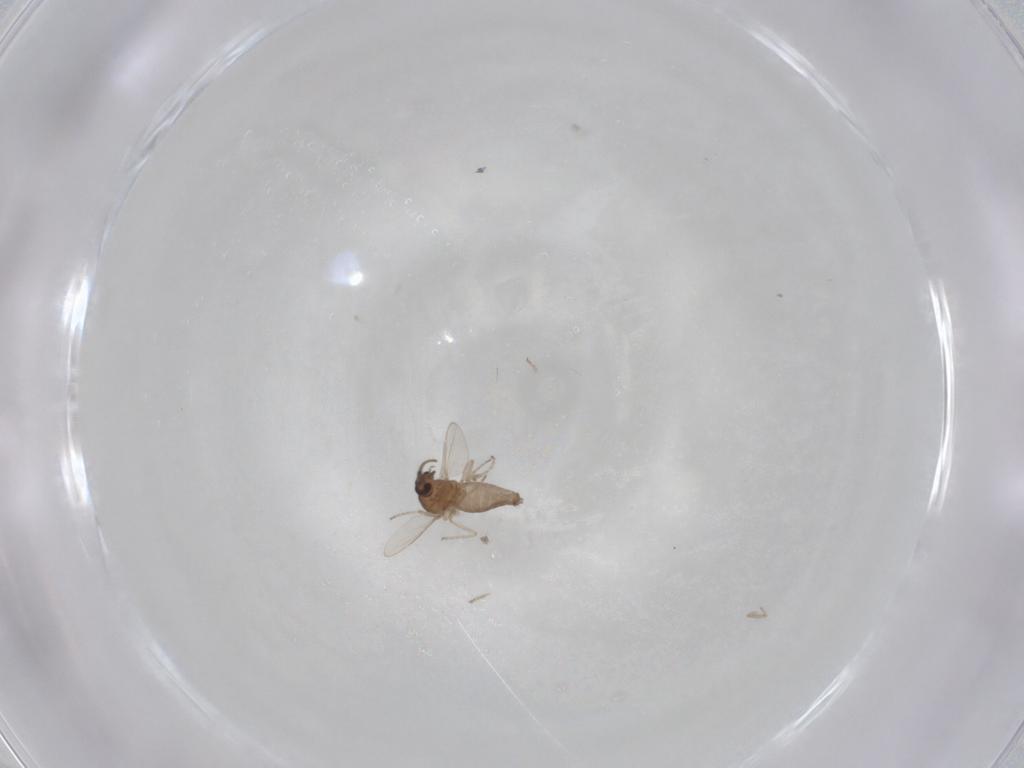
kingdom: Animalia
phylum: Arthropoda
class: Insecta
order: Diptera
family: Ceratopogonidae
